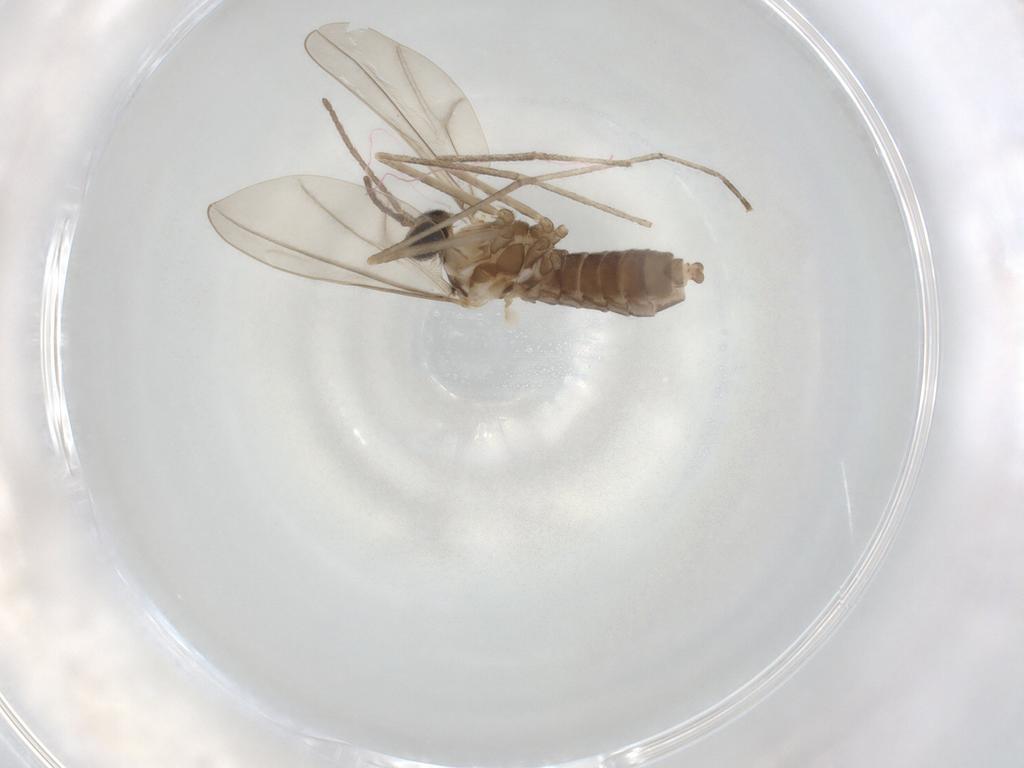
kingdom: Animalia
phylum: Arthropoda
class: Insecta
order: Diptera
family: Cecidomyiidae
